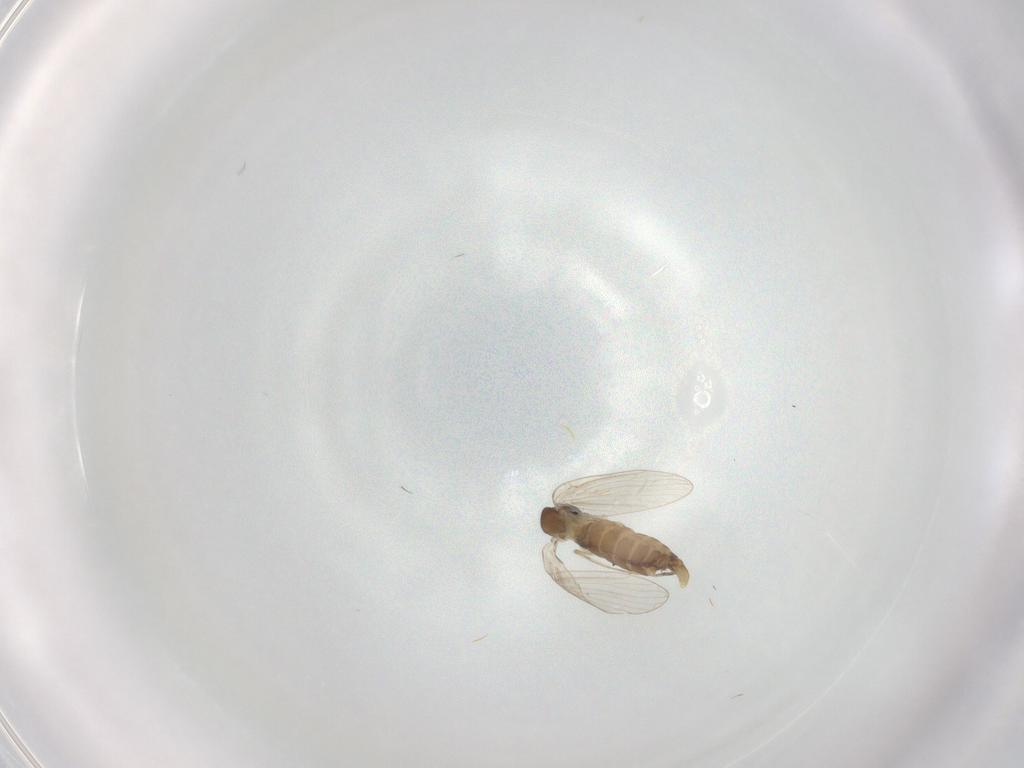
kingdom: Animalia
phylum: Arthropoda
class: Insecta
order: Diptera
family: Psychodidae
